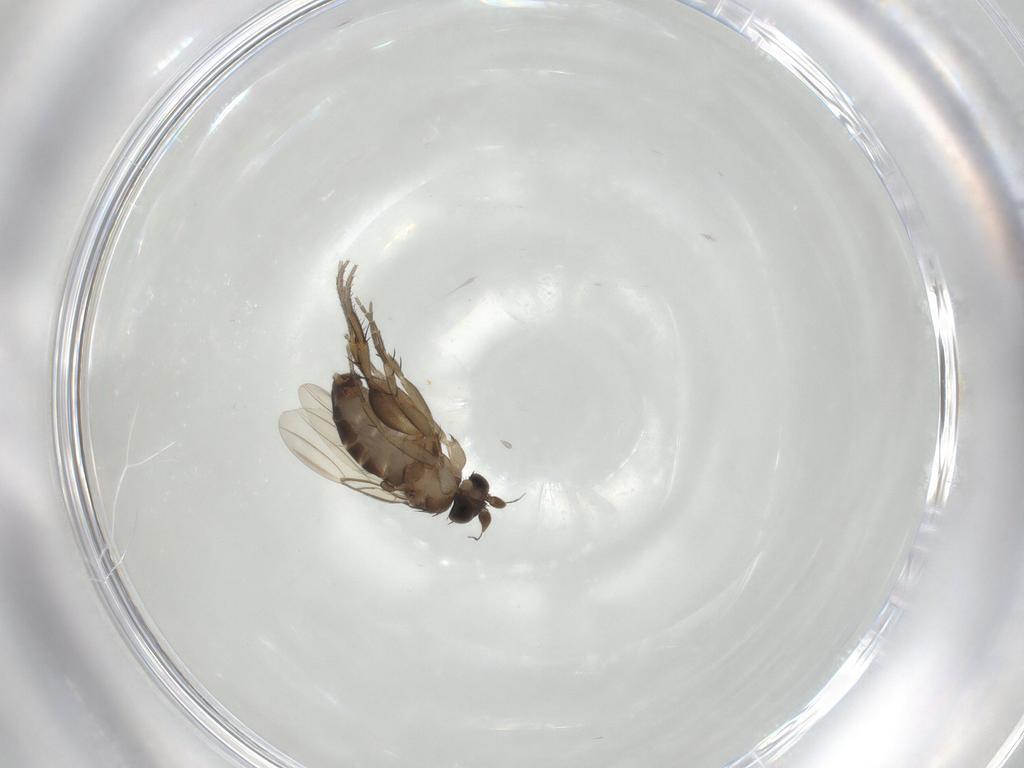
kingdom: Animalia
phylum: Arthropoda
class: Insecta
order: Diptera
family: Phoridae
